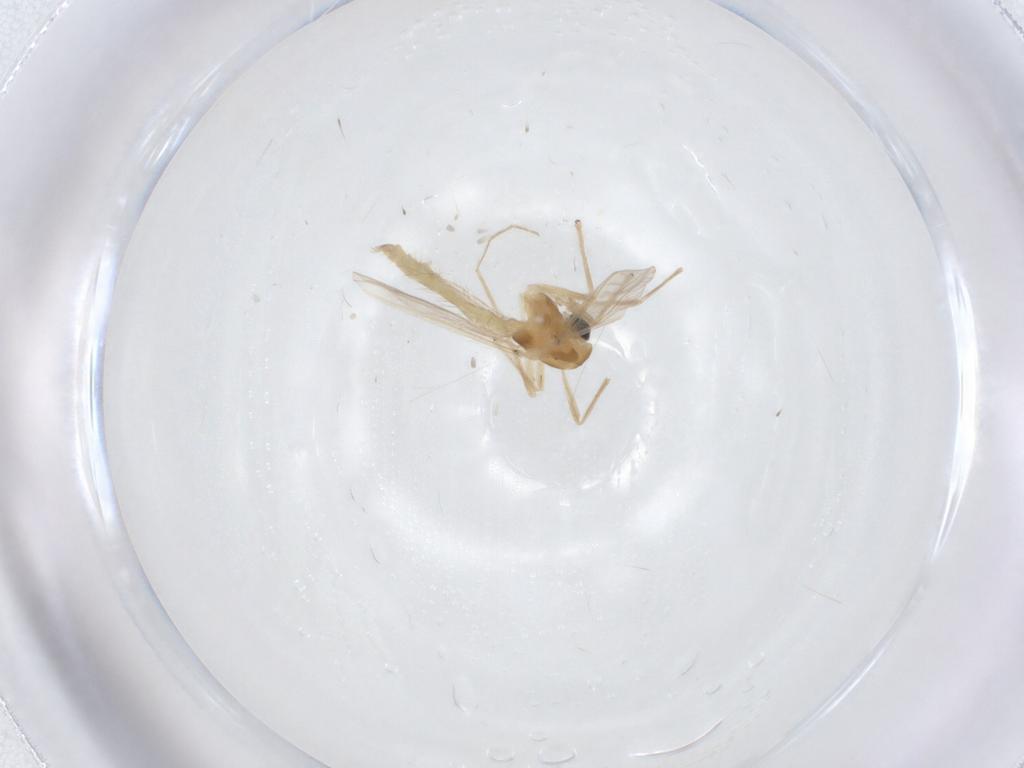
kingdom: Animalia
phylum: Arthropoda
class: Insecta
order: Diptera
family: Chironomidae
